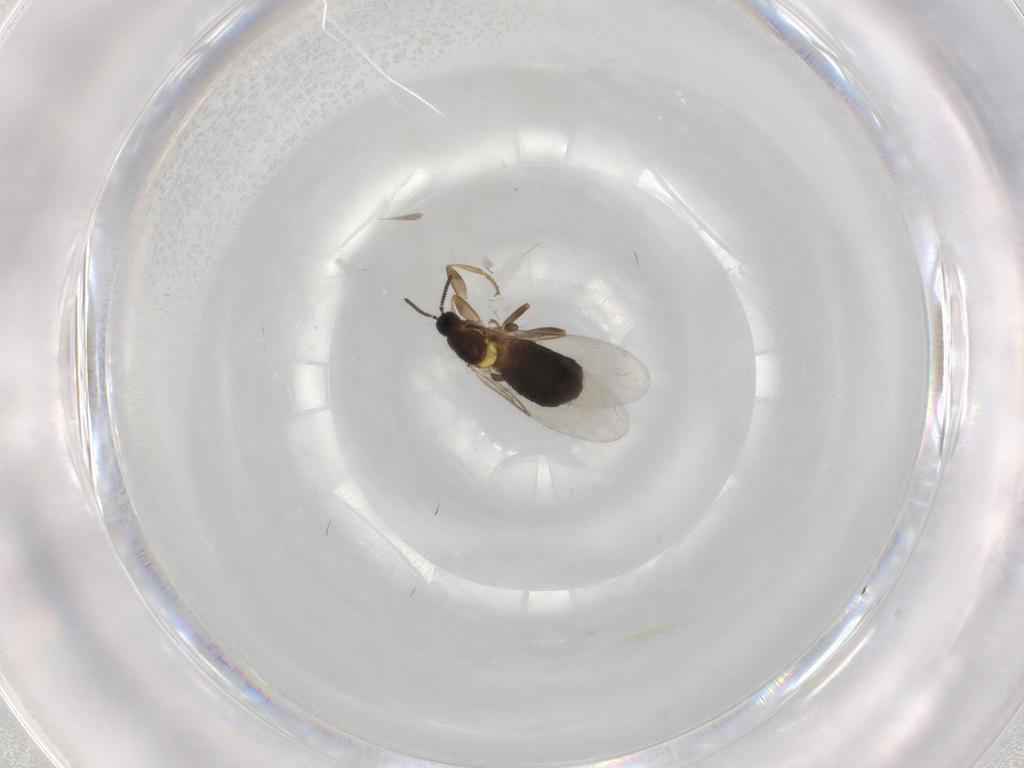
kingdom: Animalia
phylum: Arthropoda
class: Insecta
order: Diptera
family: Scatopsidae
